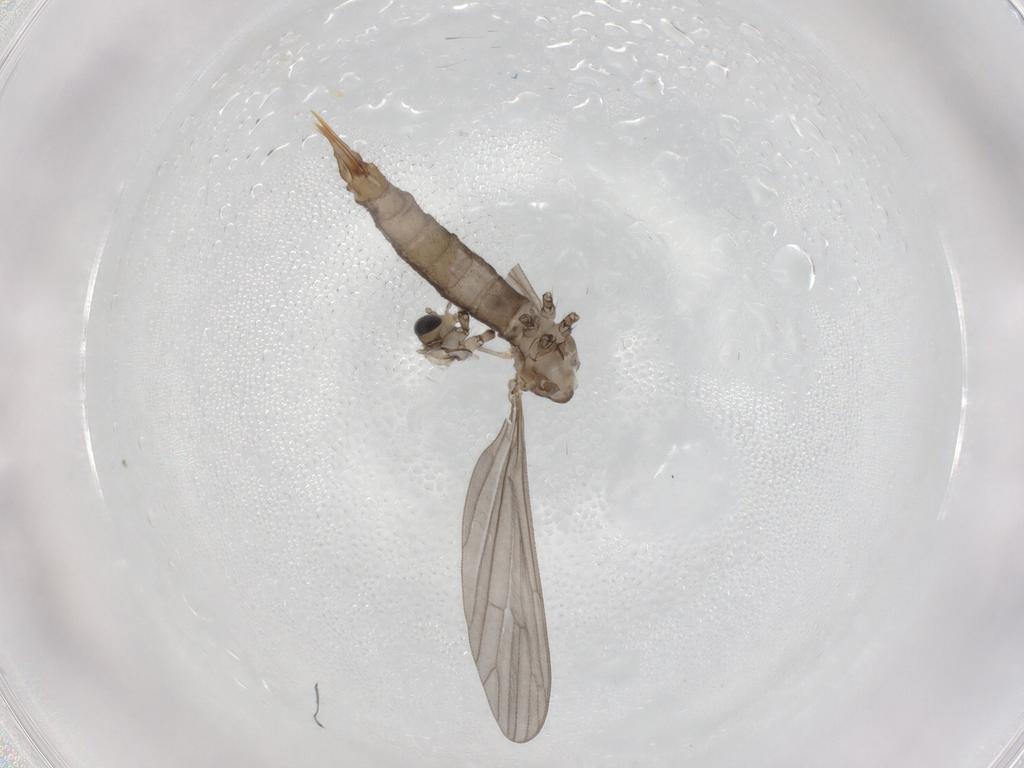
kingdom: Animalia
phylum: Arthropoda
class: Insecta
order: Diptera
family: Limoniidae
